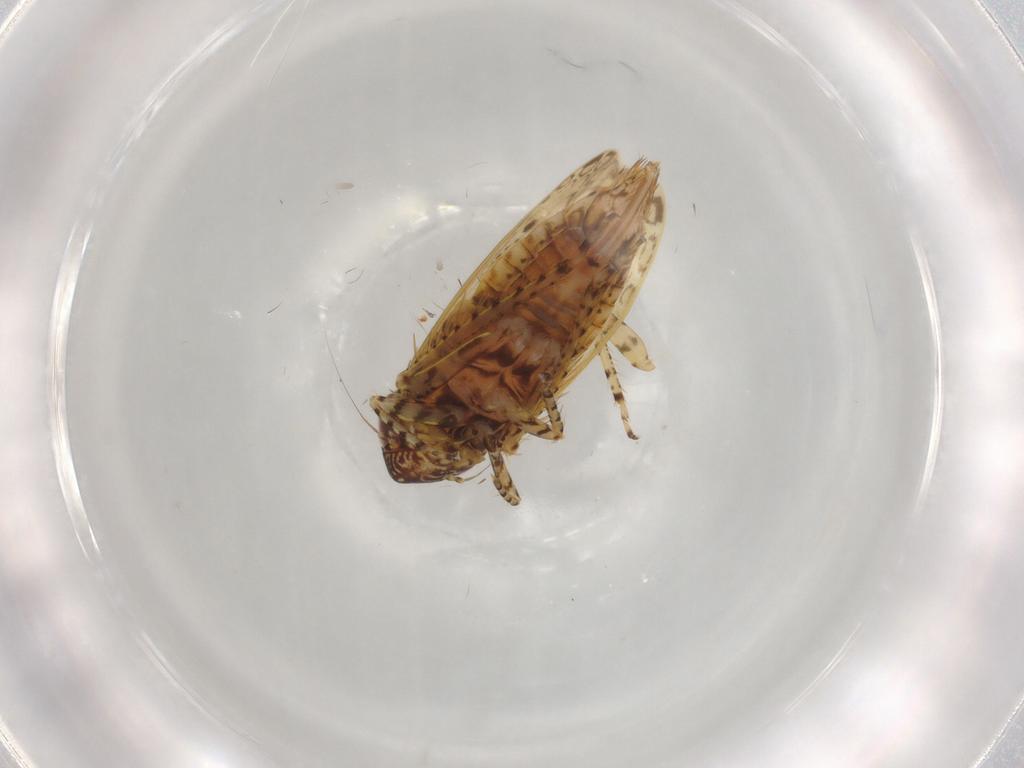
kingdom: Animalia
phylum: Arthropoda
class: Insecta
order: Hemiptera
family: Cicadellidae
